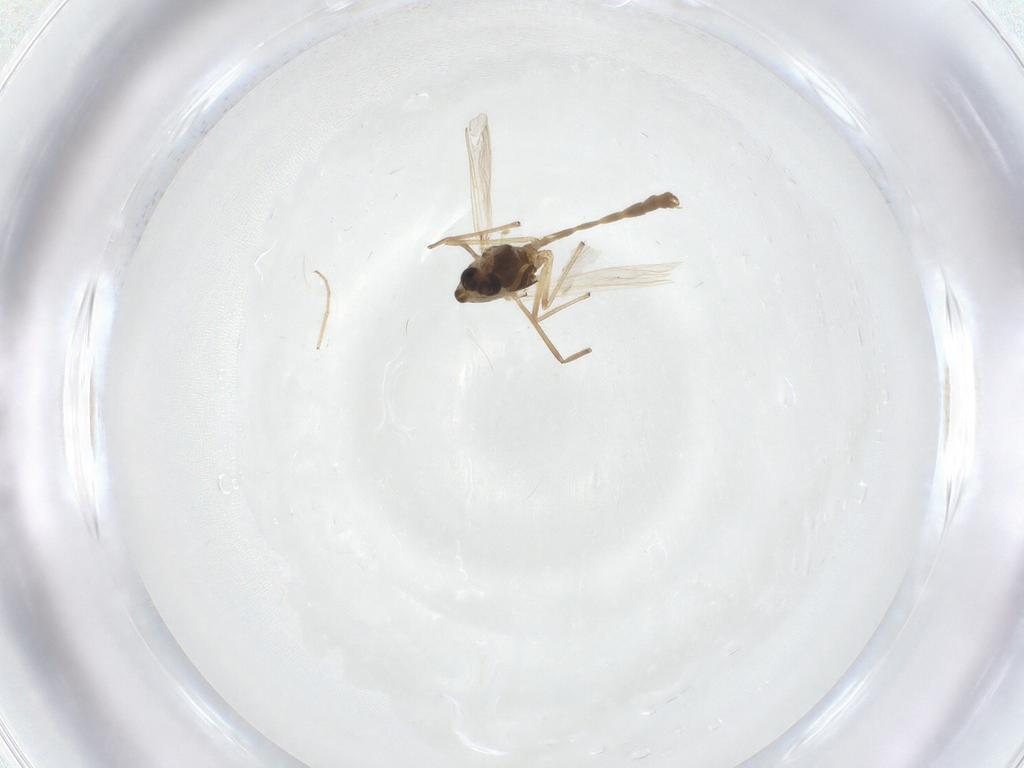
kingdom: Animalia
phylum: Arthropoda
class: Insecta
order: Diptera
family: Chironomidae
